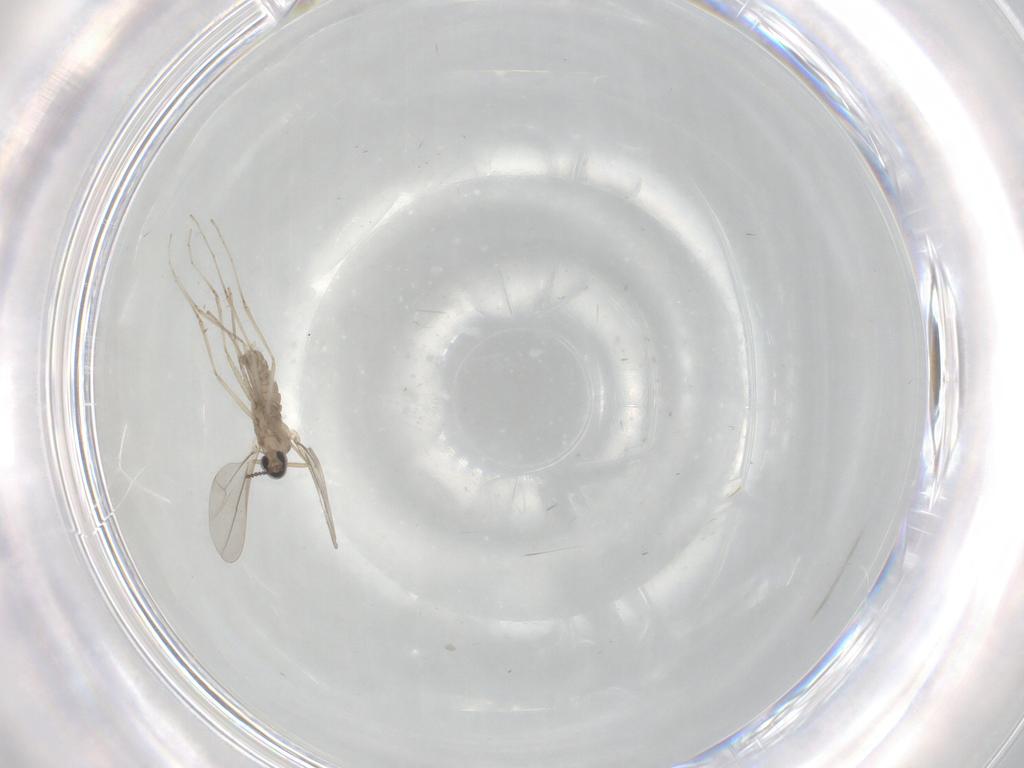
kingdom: Animalia
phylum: Arthropoda
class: Insecta
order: Diptera
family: Cecidomyiidae
